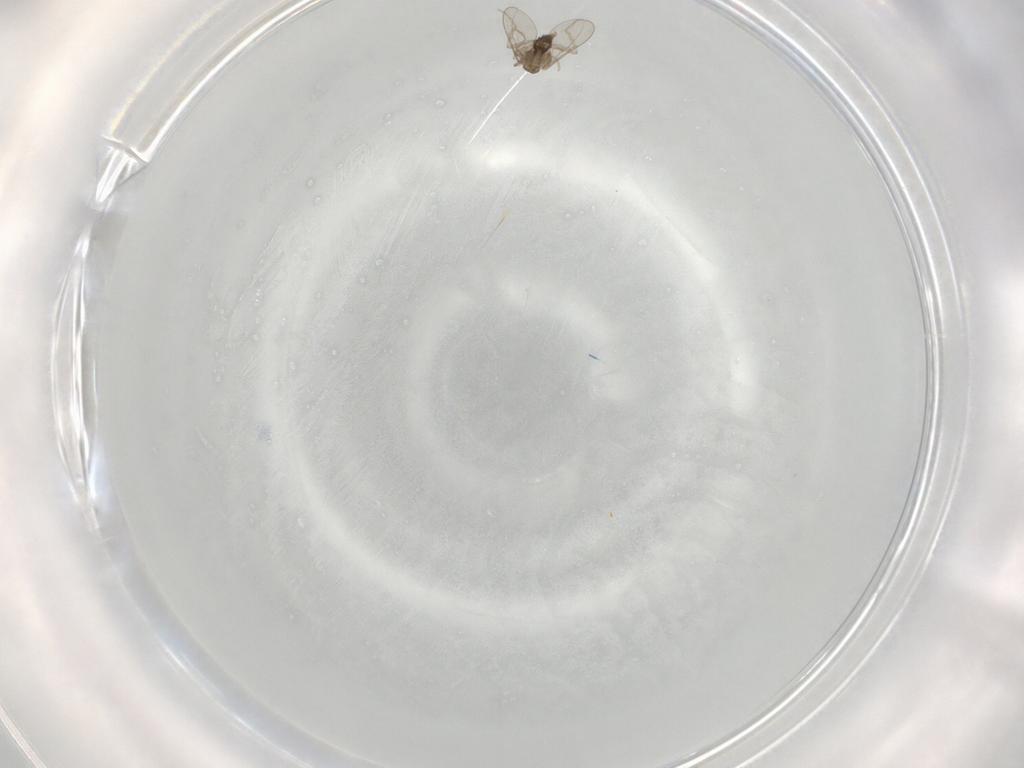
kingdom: Animalia
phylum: Arthropoda
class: Insecta
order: Diptera
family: Cecidomyiidae
